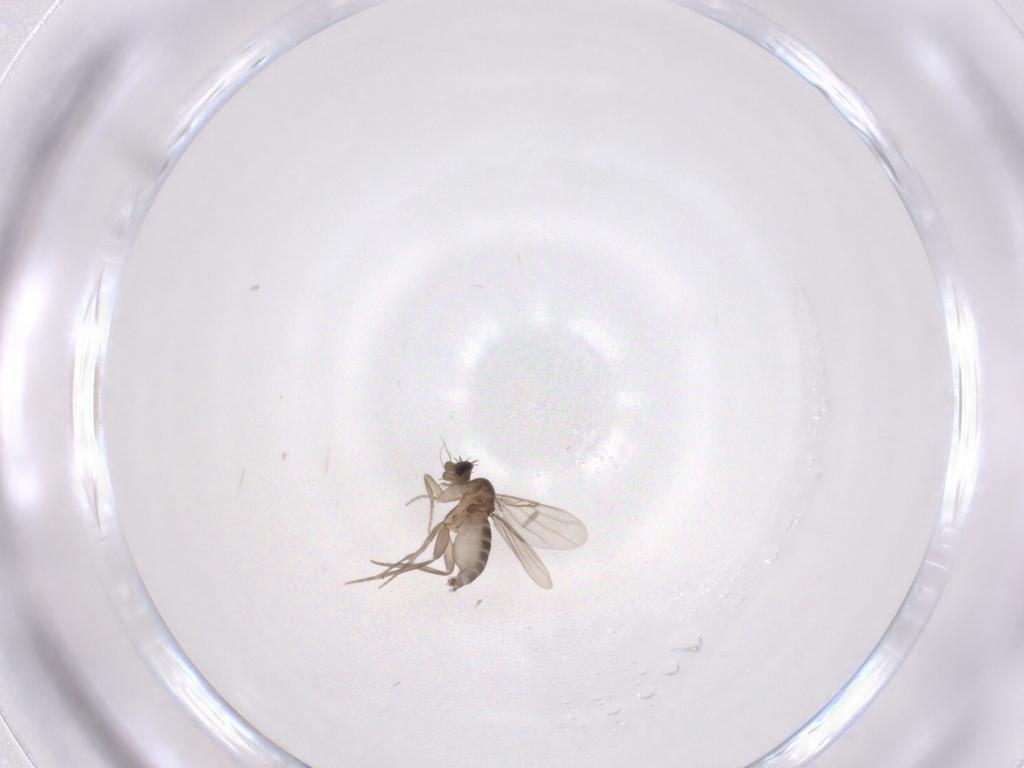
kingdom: Animalia
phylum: Arthropoda
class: Insecta
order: Diptera
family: Phoridae
